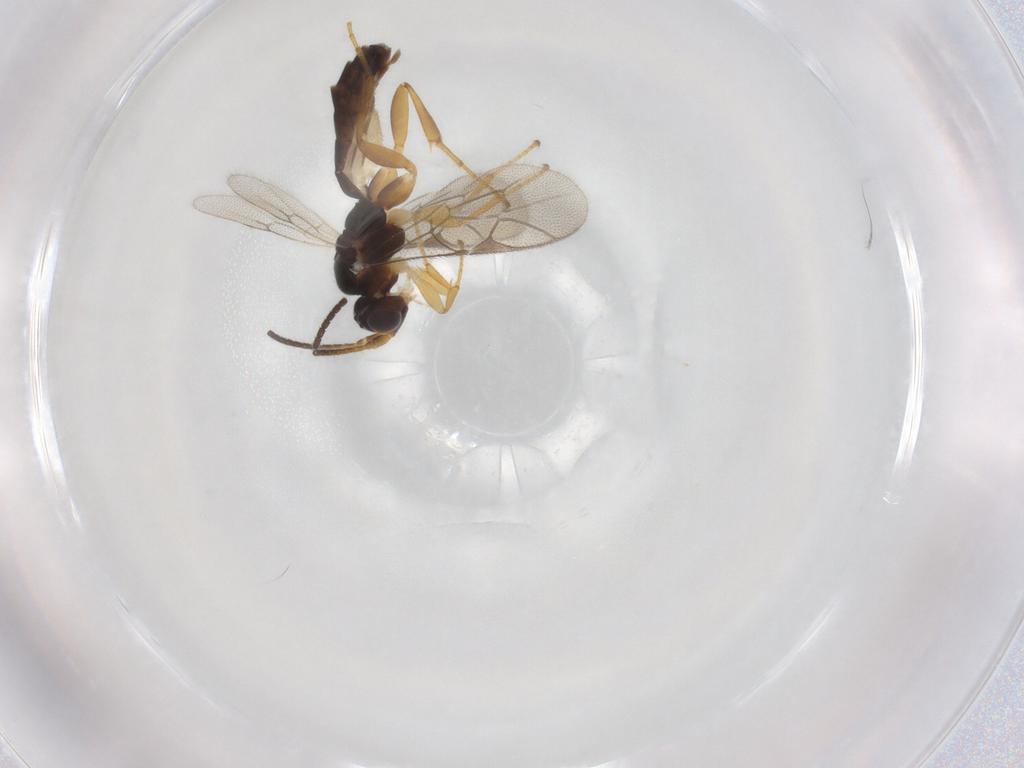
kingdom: Animalia
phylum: Arthropoda
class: Insecta
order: Hymenoptera
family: Ichneumonidae
